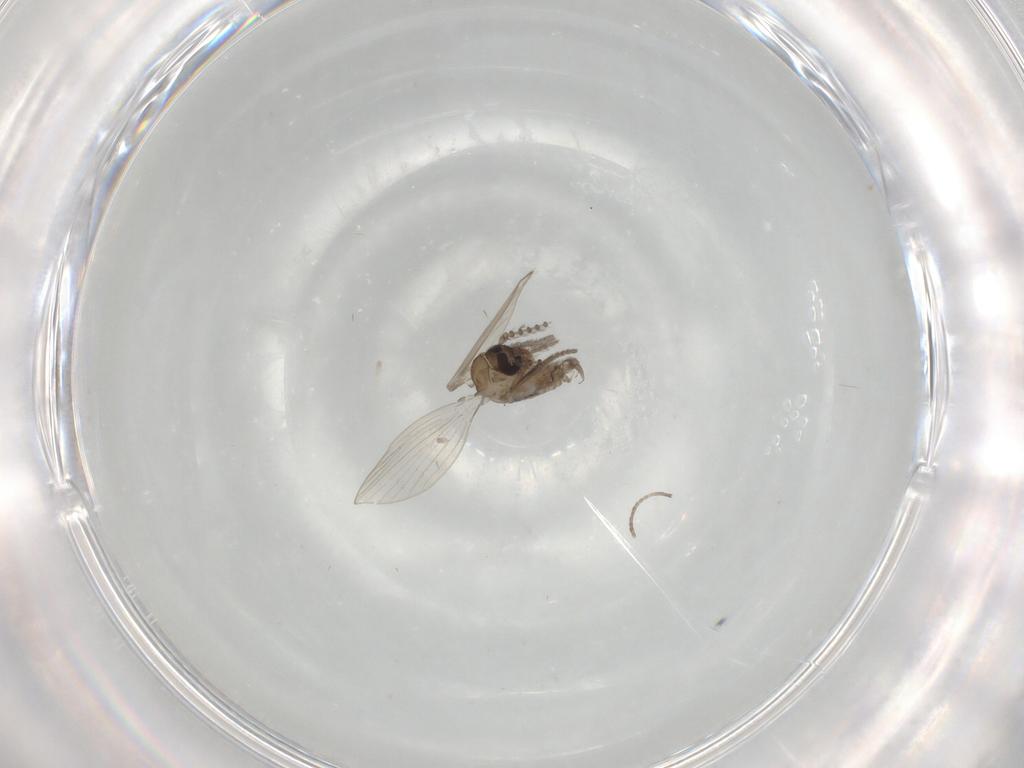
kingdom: Animalia
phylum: Arthropoda
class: Insecta
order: Diptera
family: Psychodidae
